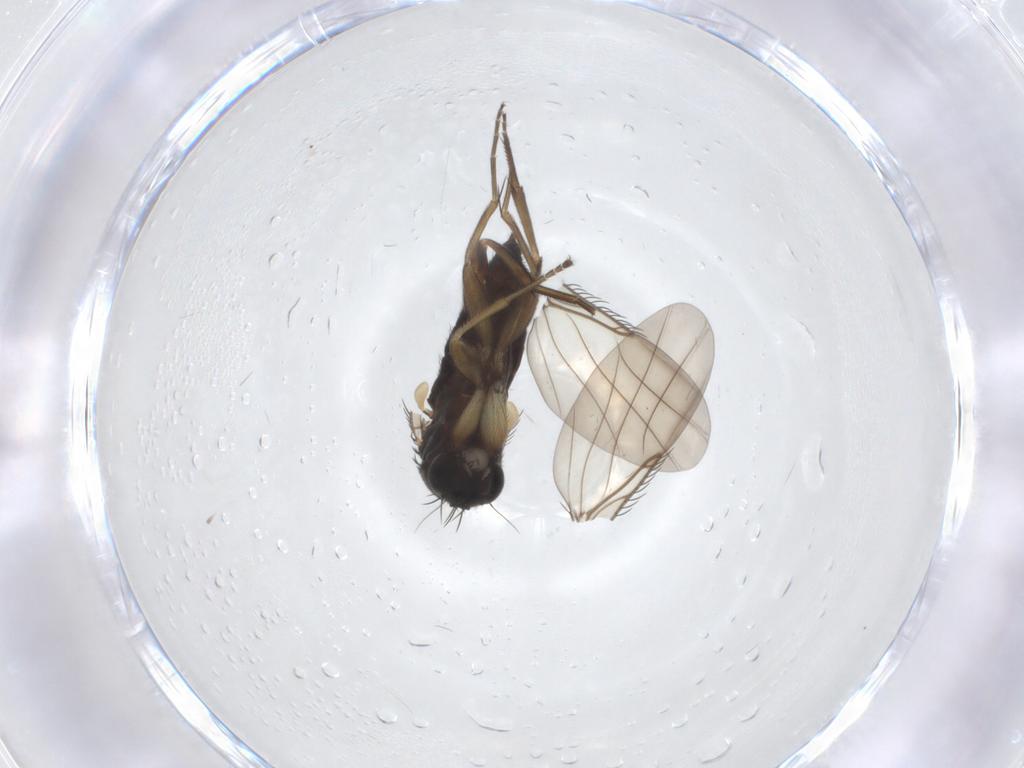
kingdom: Animalia
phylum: Arthropoda
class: Insecta
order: Diptera
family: Phoridae
